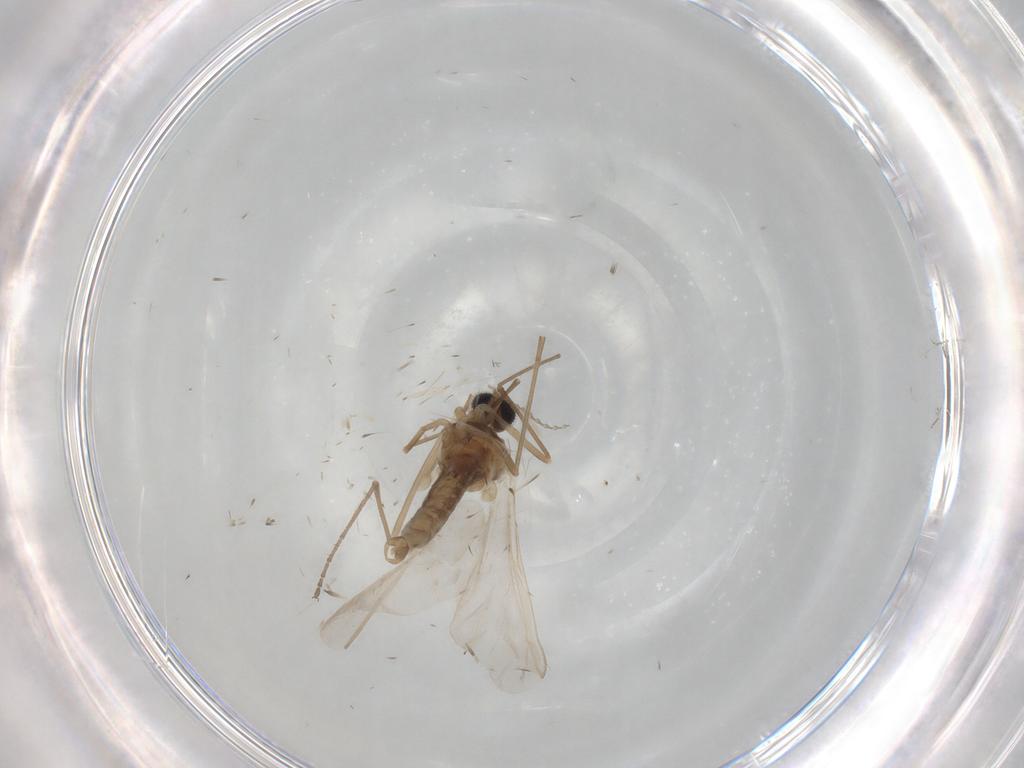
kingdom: Animalia
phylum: Arthropoda
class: Insecta
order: Diptera
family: Cecidomyiidae
